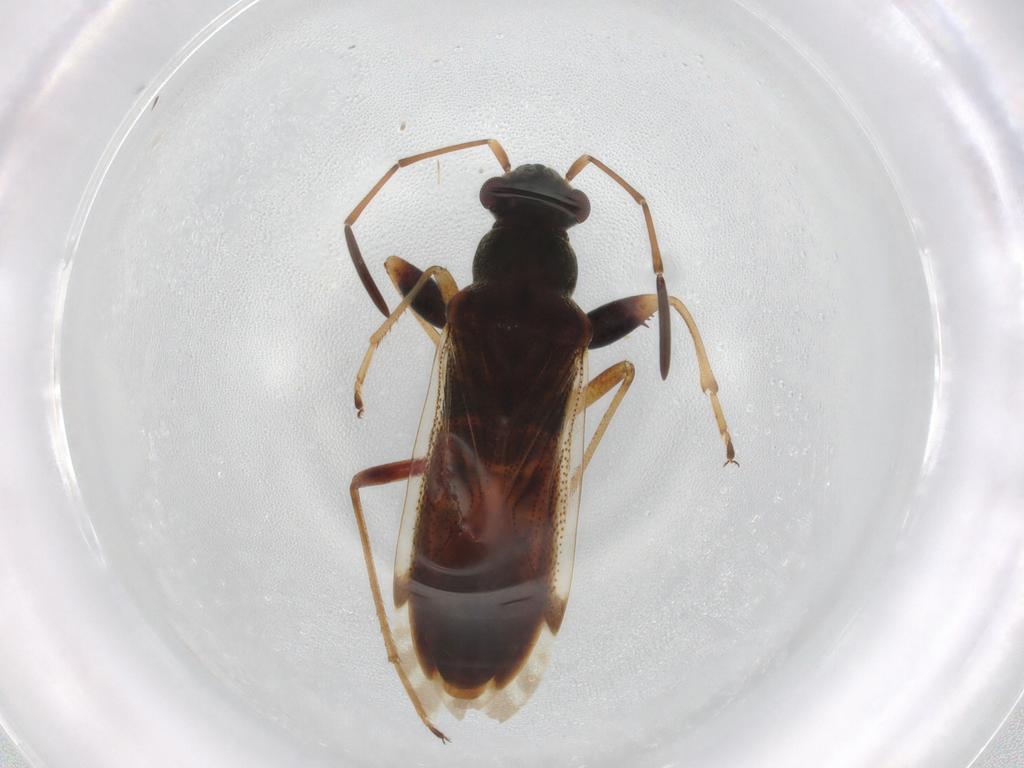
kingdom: Animalia
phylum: Arthropoda
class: Insecta
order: Hemiptera
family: Rhyparochromidae
